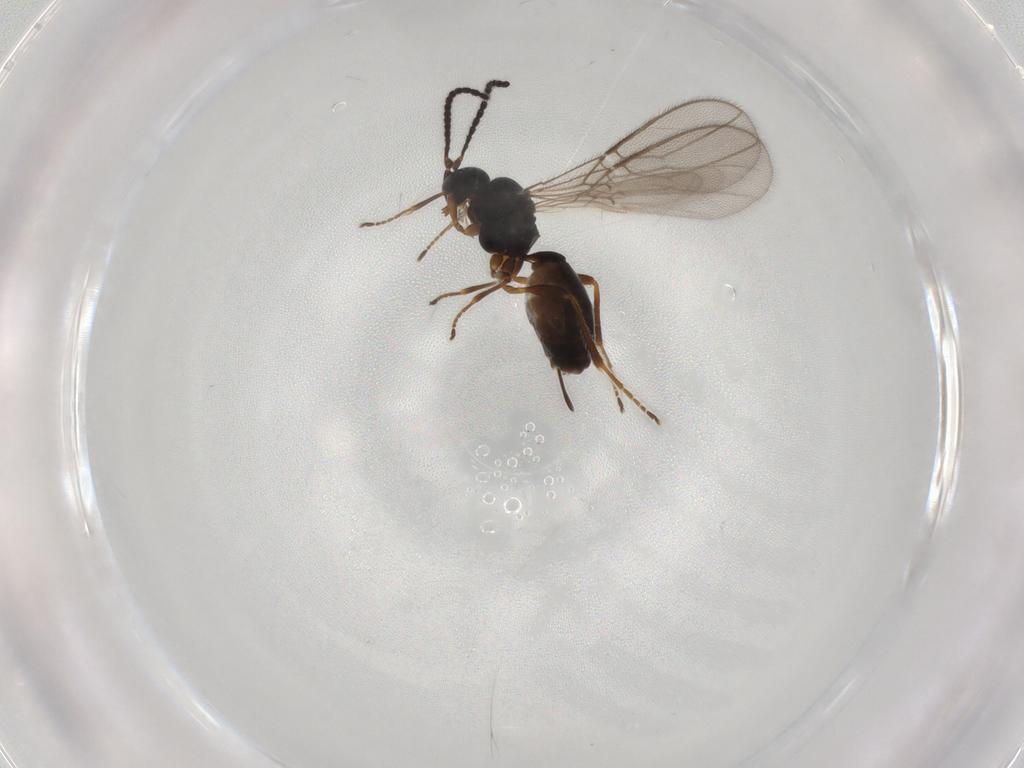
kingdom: Animalia
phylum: Arthropoda
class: Insecta
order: Hymenoptera
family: Braconidae
